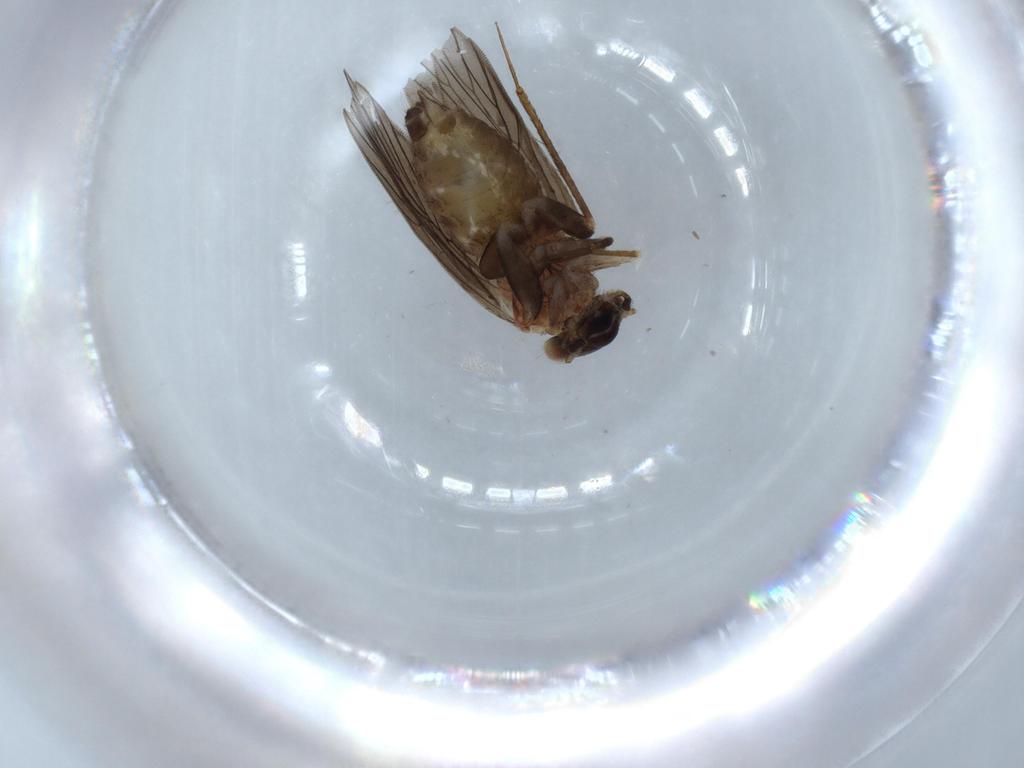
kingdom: Animalia
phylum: Arthropoda
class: Insecta
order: Psocodea
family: Lepidopsocidae
